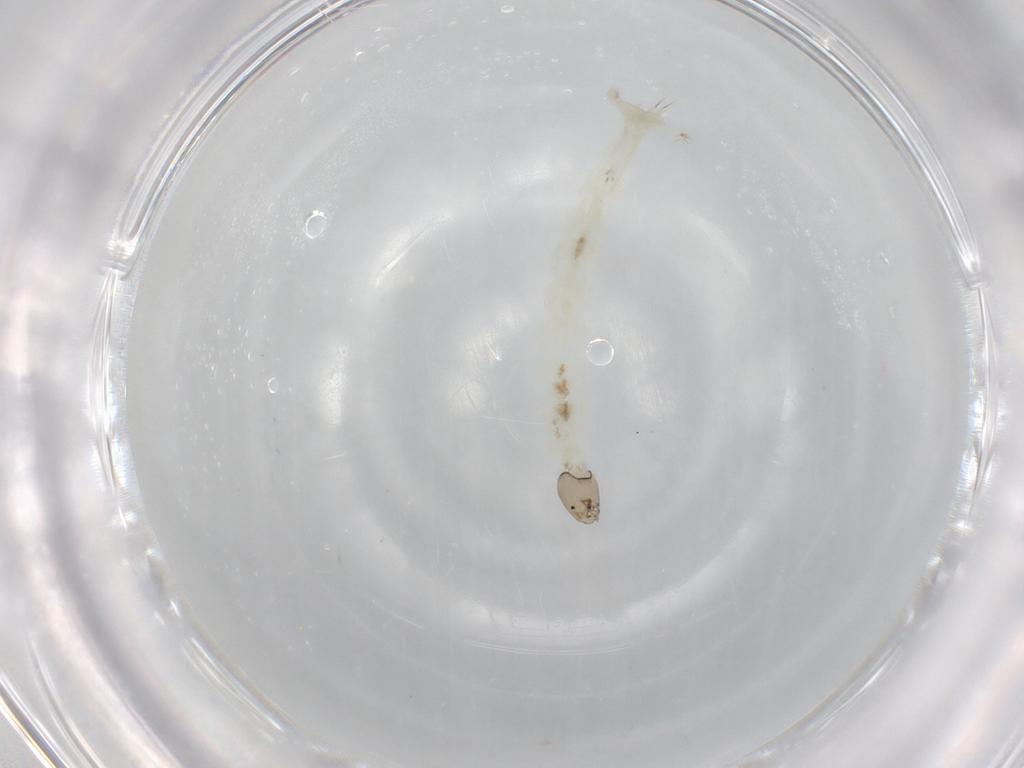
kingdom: Animalia
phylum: Arthropoda
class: Insecta
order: Diptera
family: Chironomidae
